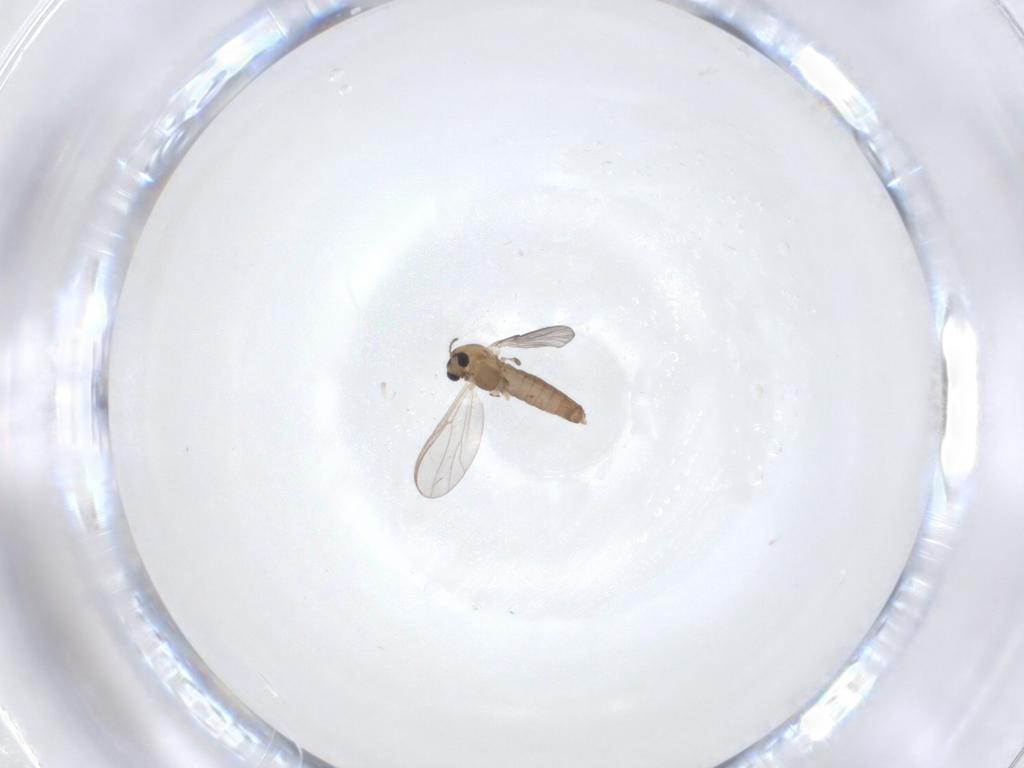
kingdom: Animalia
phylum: Arthropoda
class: Insecta
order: Diptera
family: Chironomidae
